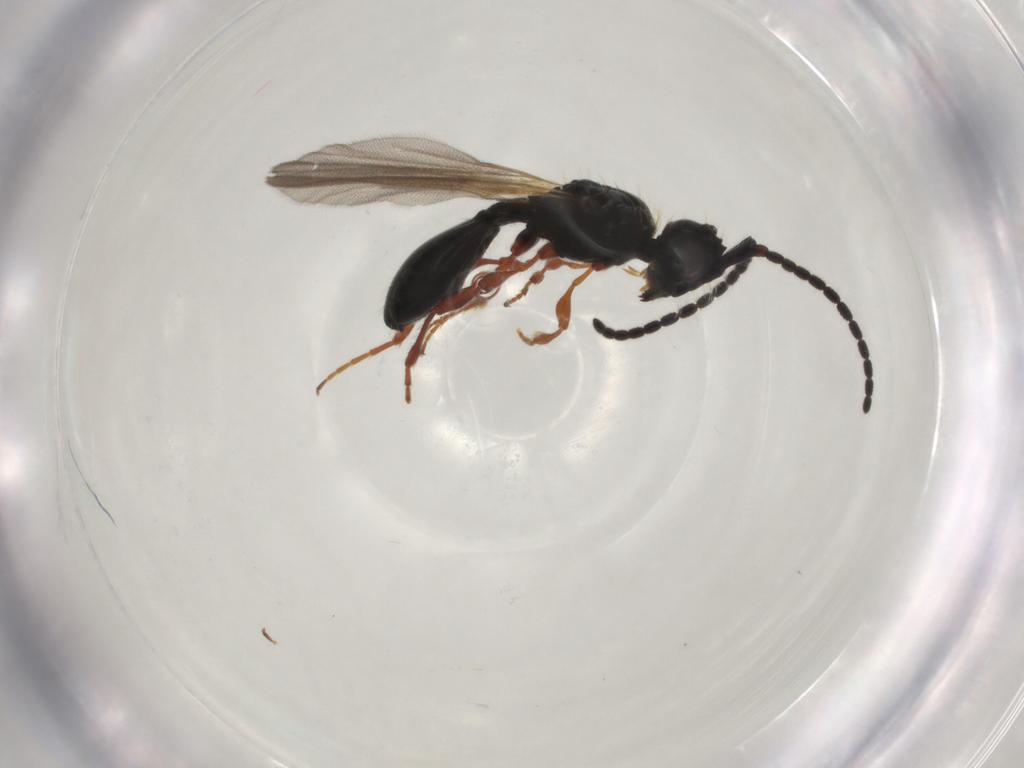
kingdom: Animalia
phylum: Arthropoda
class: Insecta
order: Hymenoptera
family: Diapriidae
